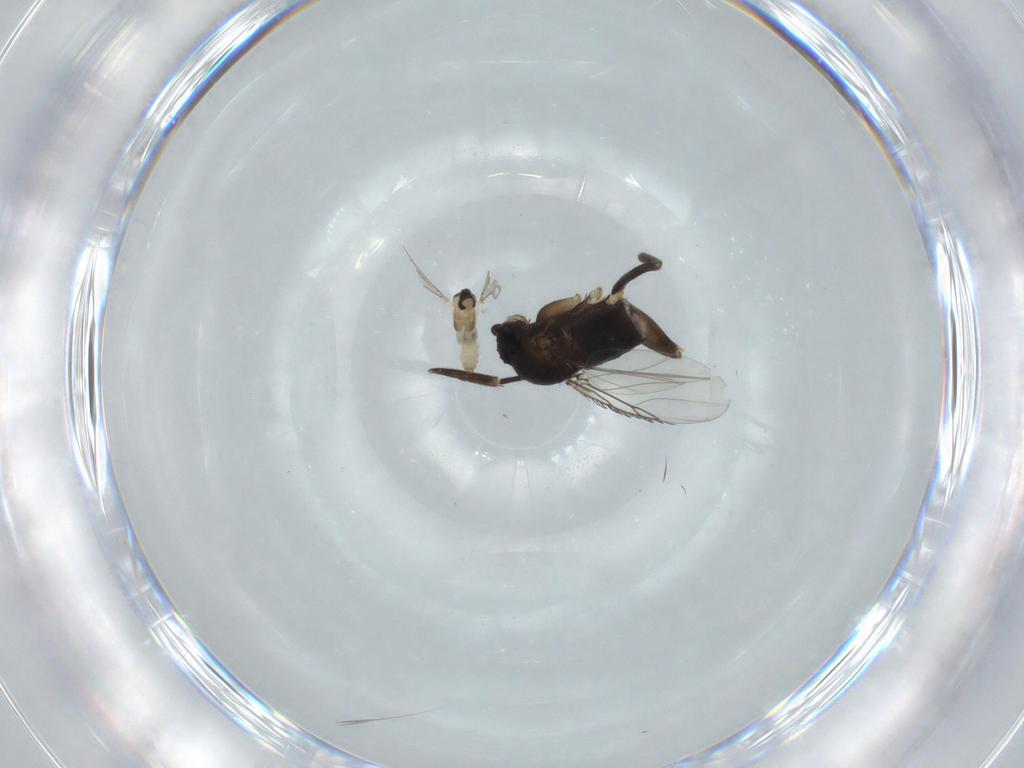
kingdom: Animalia
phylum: Arthropoda
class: Insecta
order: Diptera
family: Cecidomyiidae
